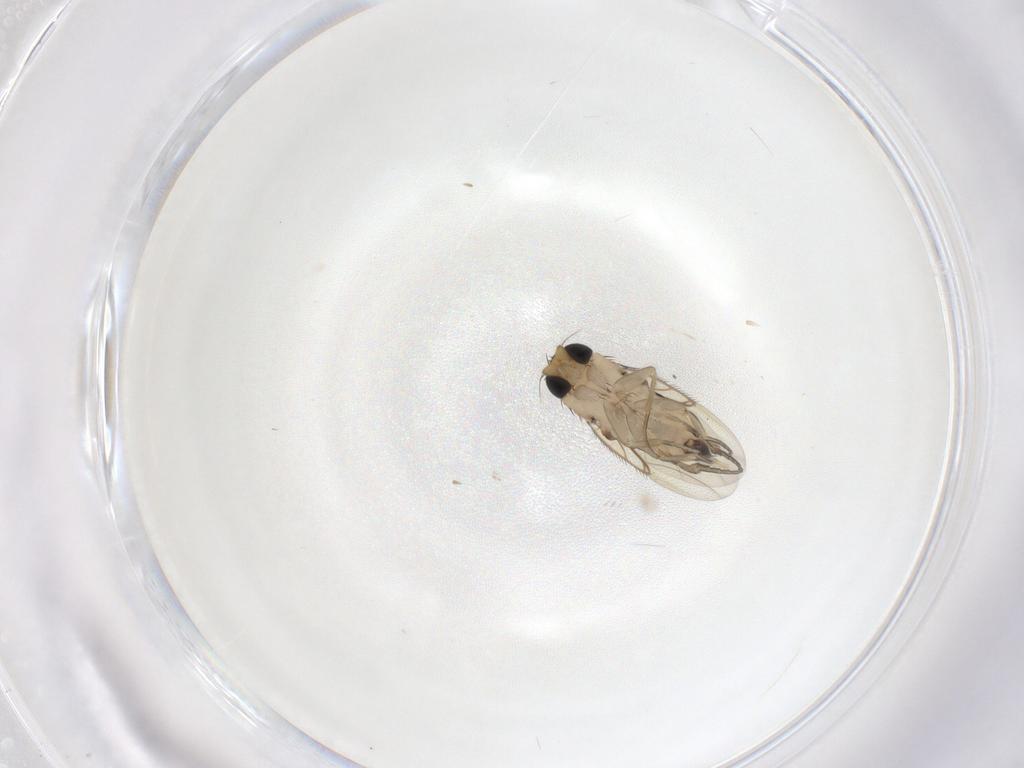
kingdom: Animalia
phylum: Arthropoda
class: Insecta
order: Diptera
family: Phoridae
